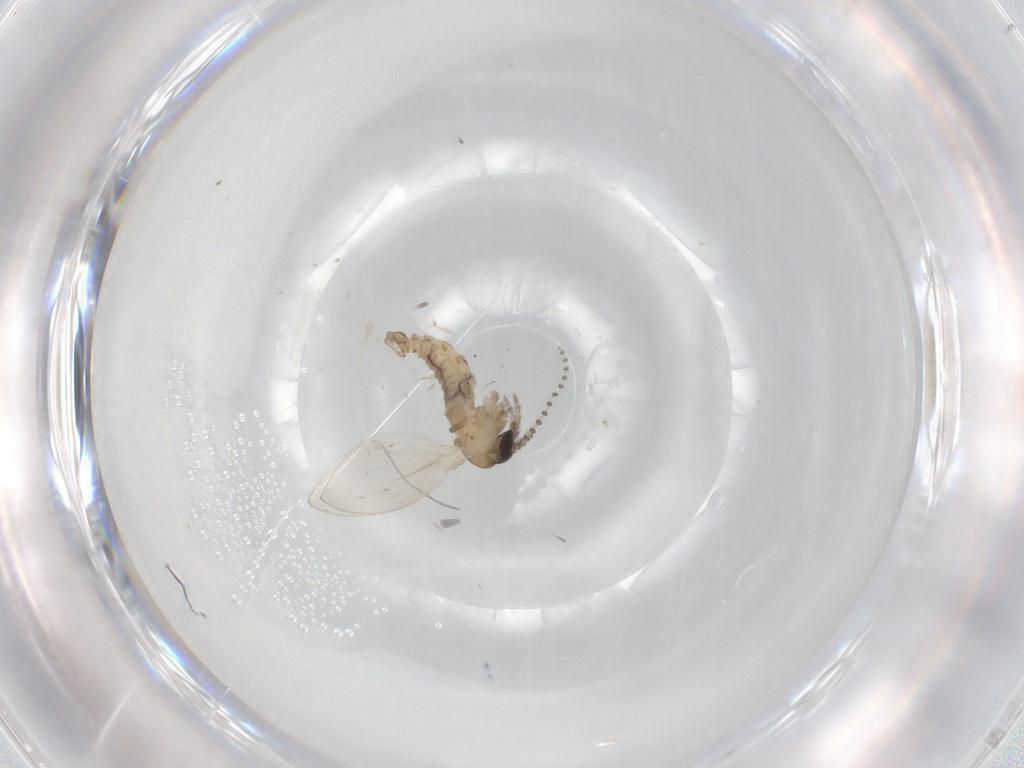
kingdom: Animalia
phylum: Arthropoda
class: Insecta
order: Diptera
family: Psychodidae
